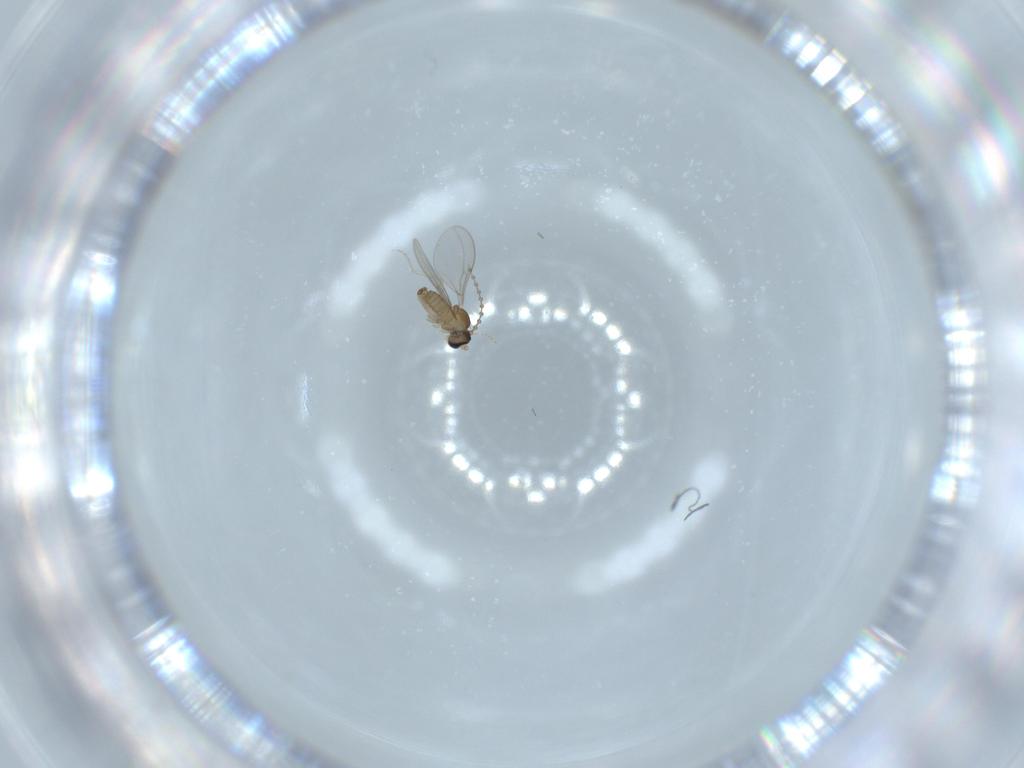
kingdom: Animalia
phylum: Arthropoda
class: Insecta
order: Diptera
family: Cecidomyiidae
